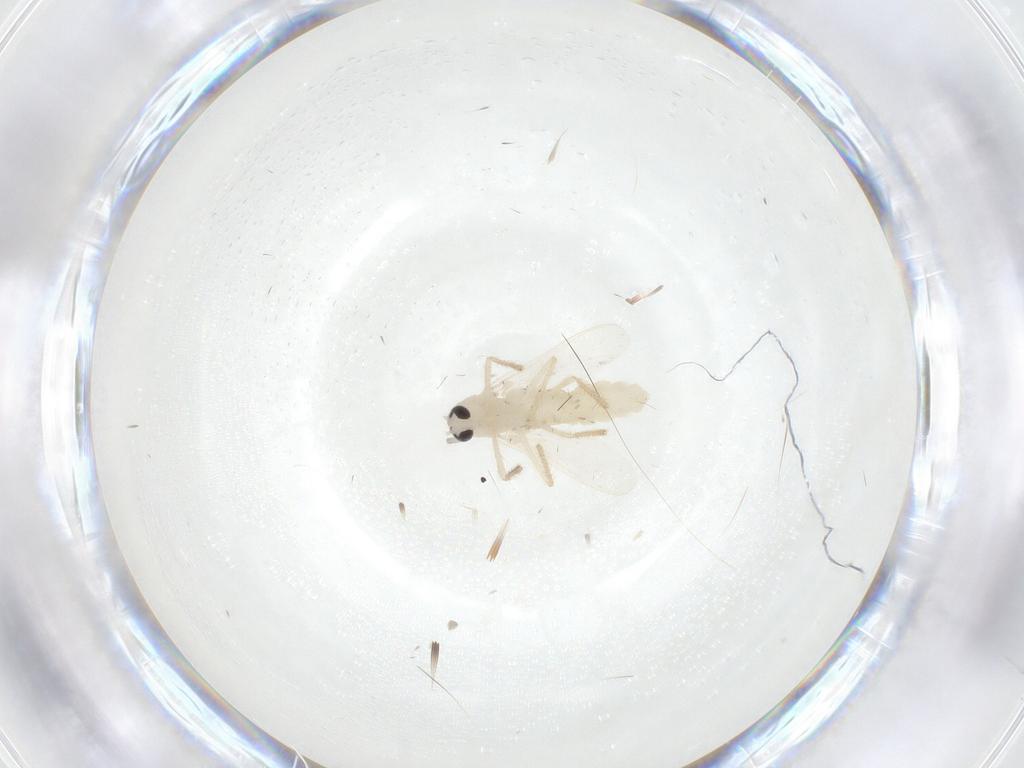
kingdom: Animalia
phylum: Arthropoda
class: Insecta
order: Diptera
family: Chironomidae
